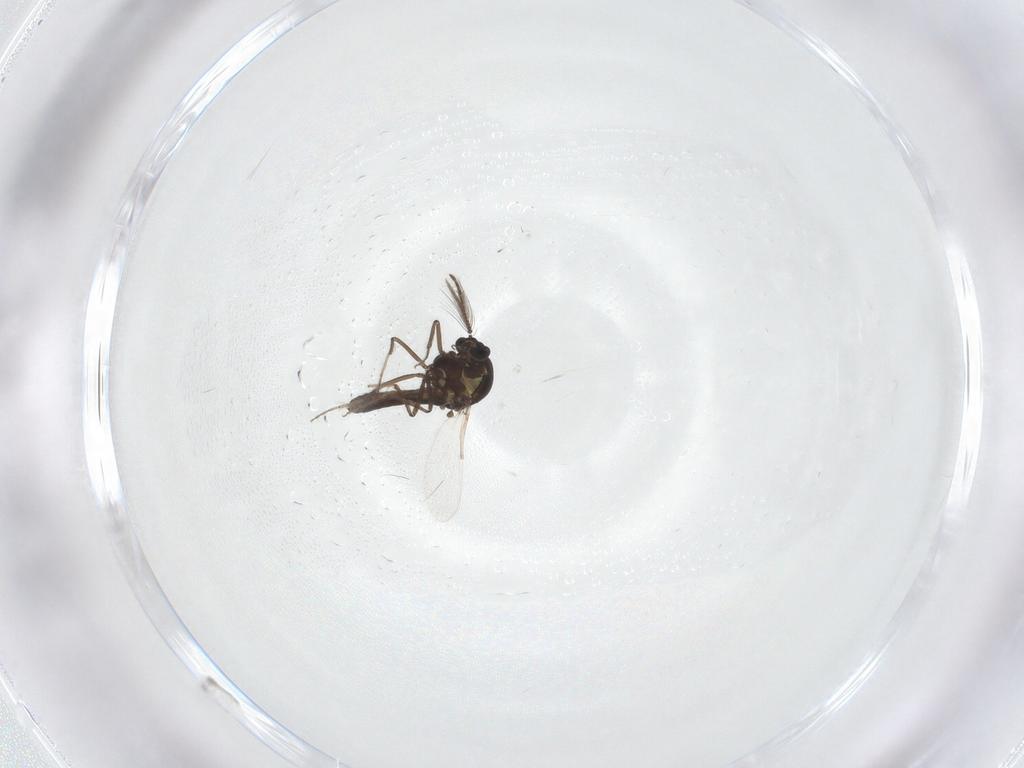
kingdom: Animalia
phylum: Arthropoda
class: Insecta
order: Diptera
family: Ceratopogonidae
